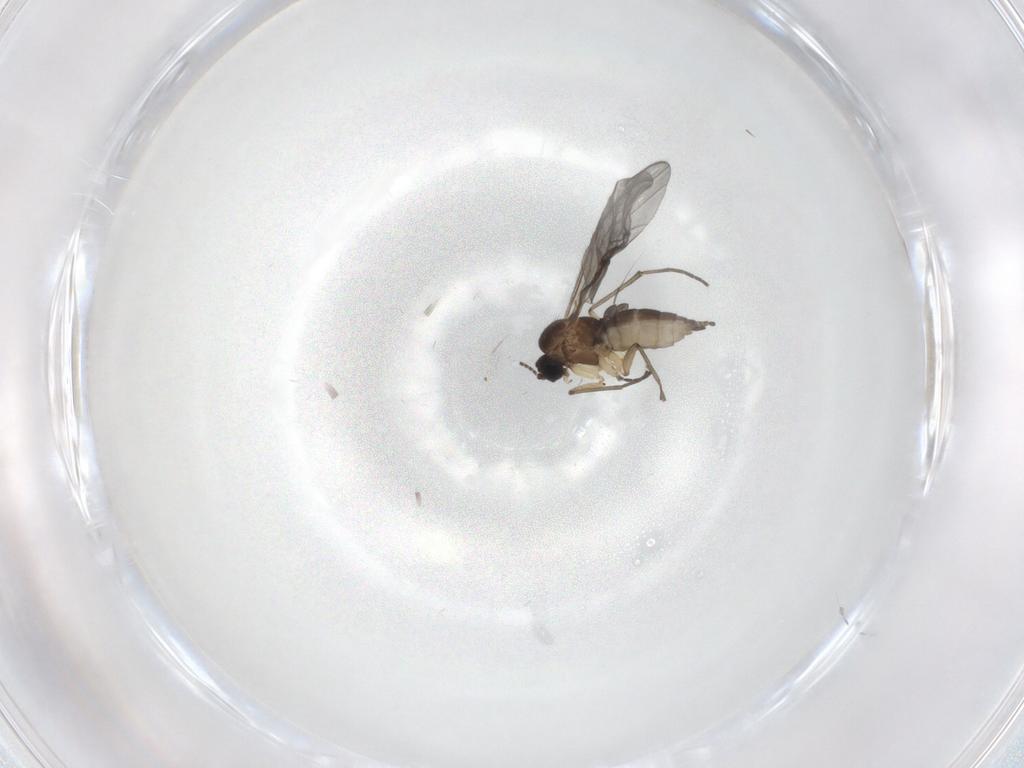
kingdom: Animalia
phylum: Arthropoda
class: Insecta
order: Diptera
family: Sciaridae
